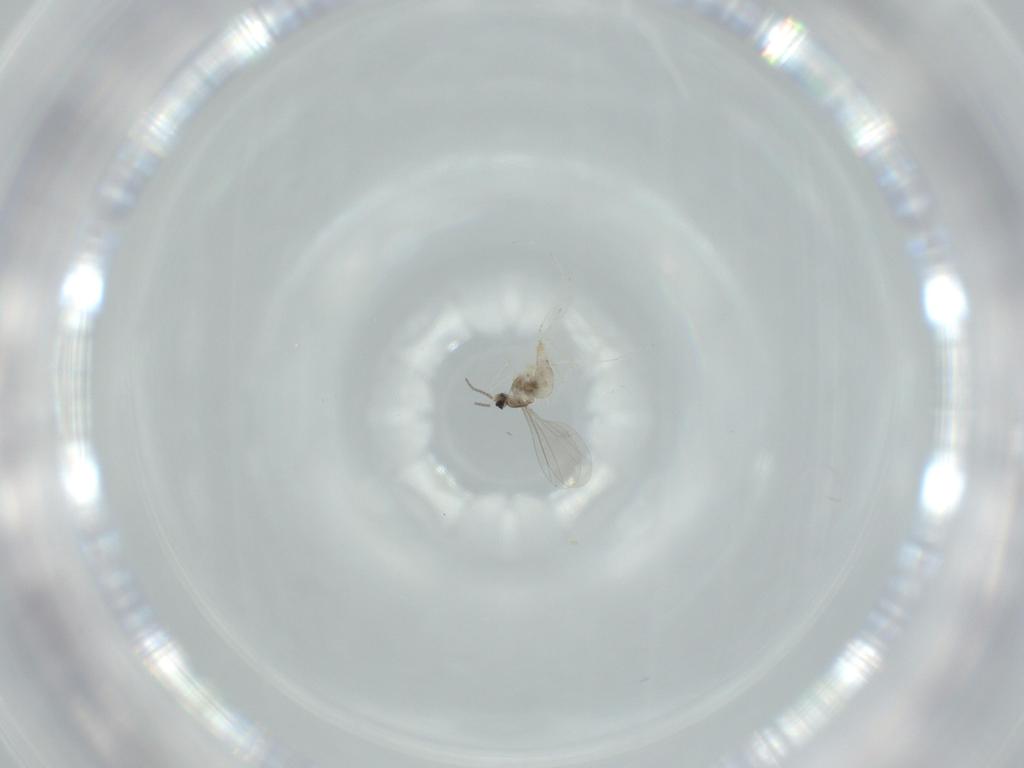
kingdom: Animalia
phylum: Arthropoda
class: Insecta
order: Diptera
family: Cecidomyiidae
